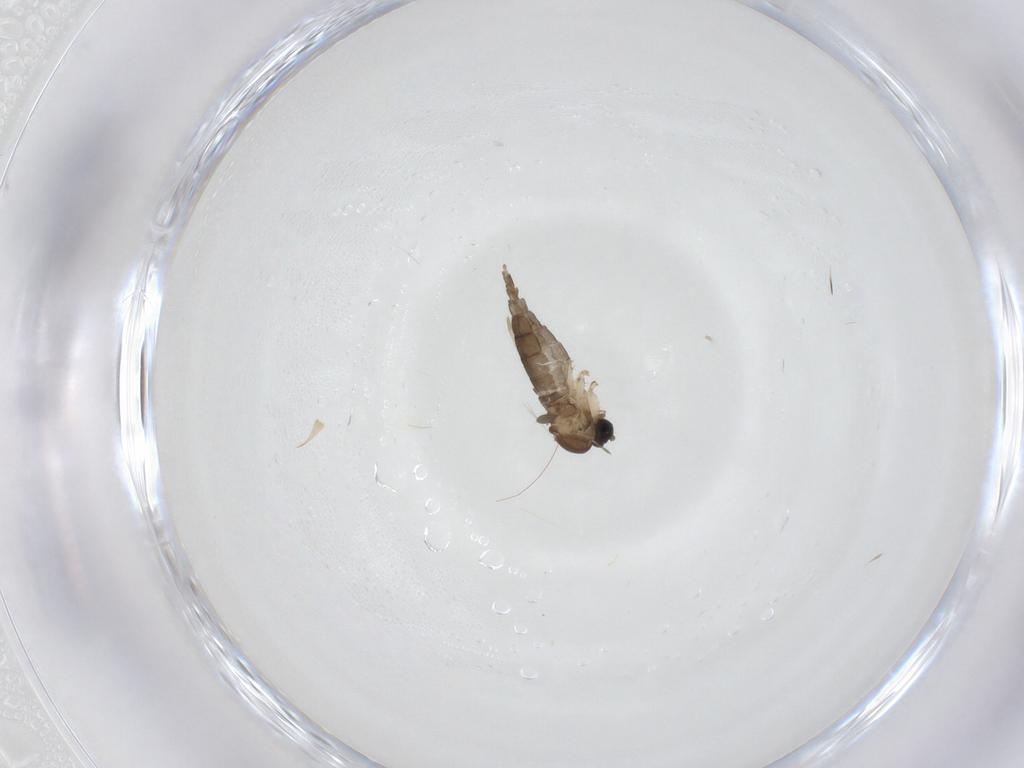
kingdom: Animalia
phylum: Arthropoda
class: Insecta
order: Diptera
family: Sciaridae
